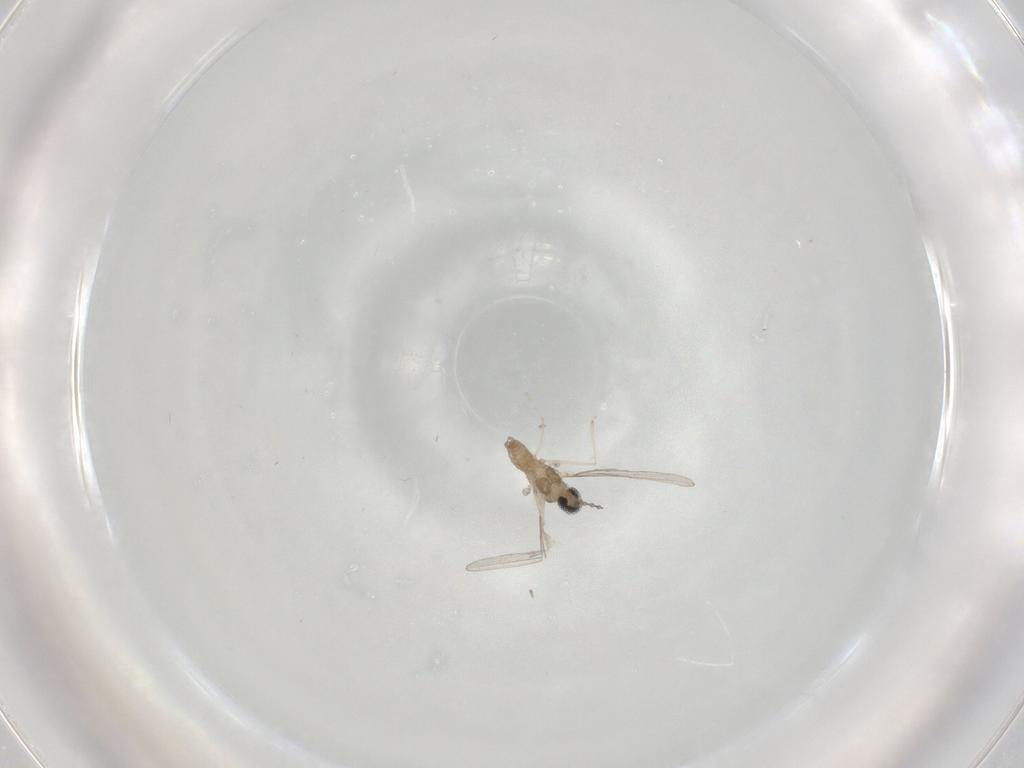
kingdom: Animalia
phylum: Arthropoda
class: Insecta
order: Diptera
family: Cecidomyiidae
